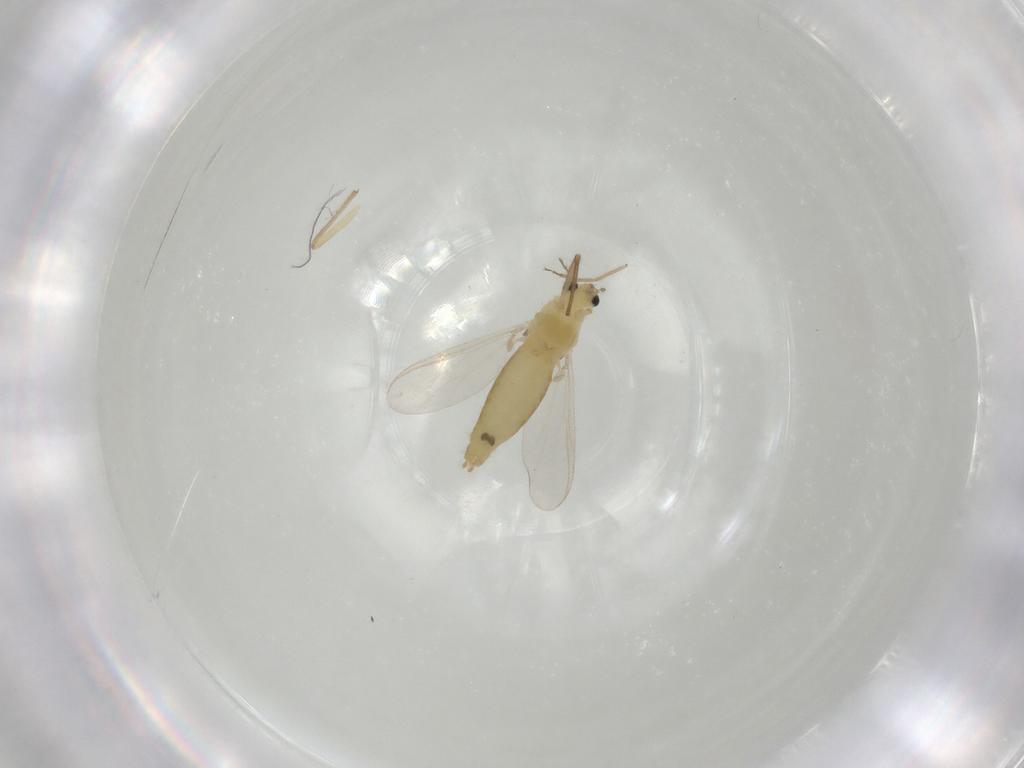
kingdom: Animalia
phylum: Arthropoda
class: Insecta
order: Diptera
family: Chironomidae
